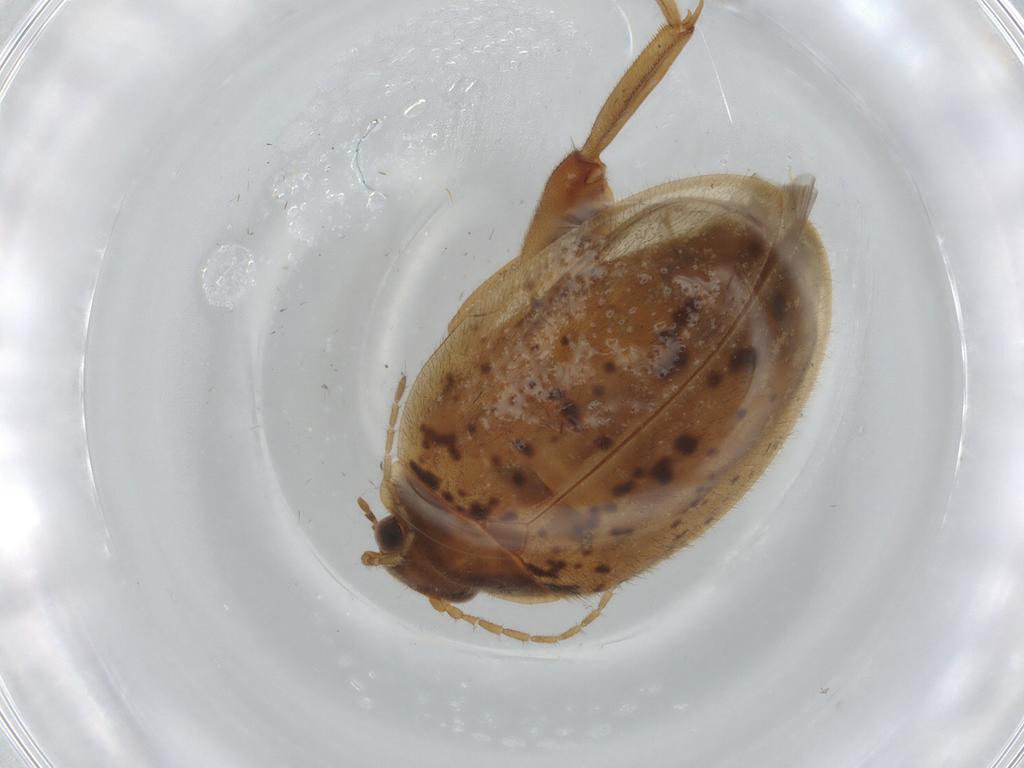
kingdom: Animalia
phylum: Arthropoda
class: Insecta
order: Coleoptera
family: Scirtidae
